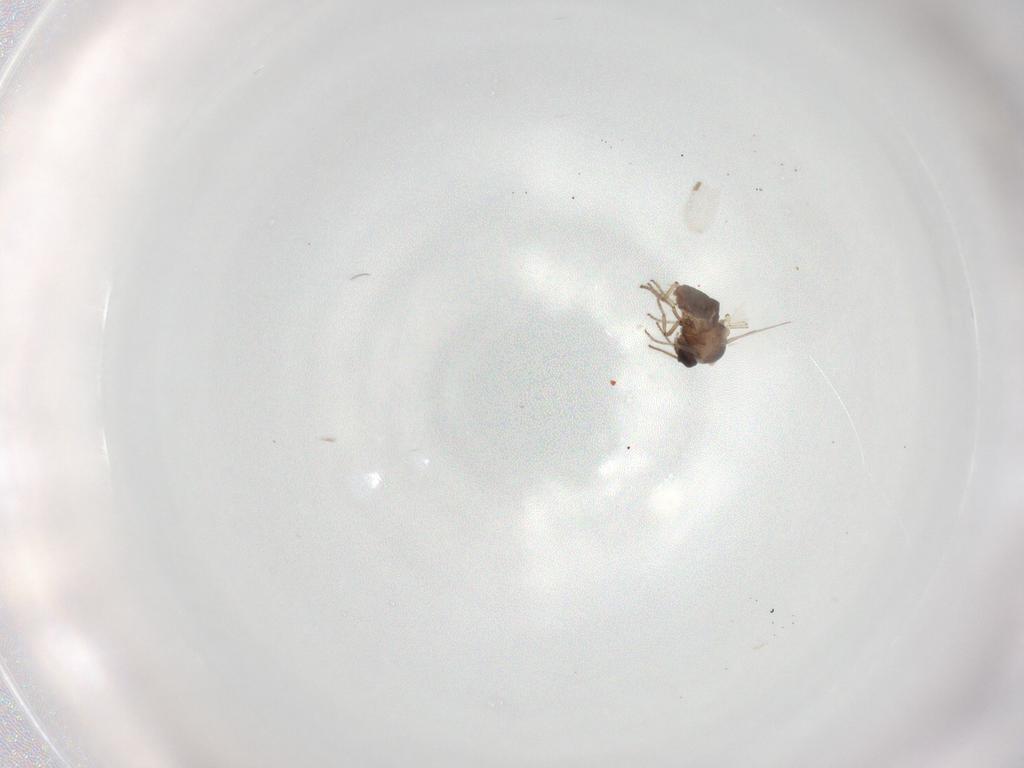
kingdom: Animalia
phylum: Arthropoda
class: Insecta
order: Diptera
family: Ceratopogonidae
